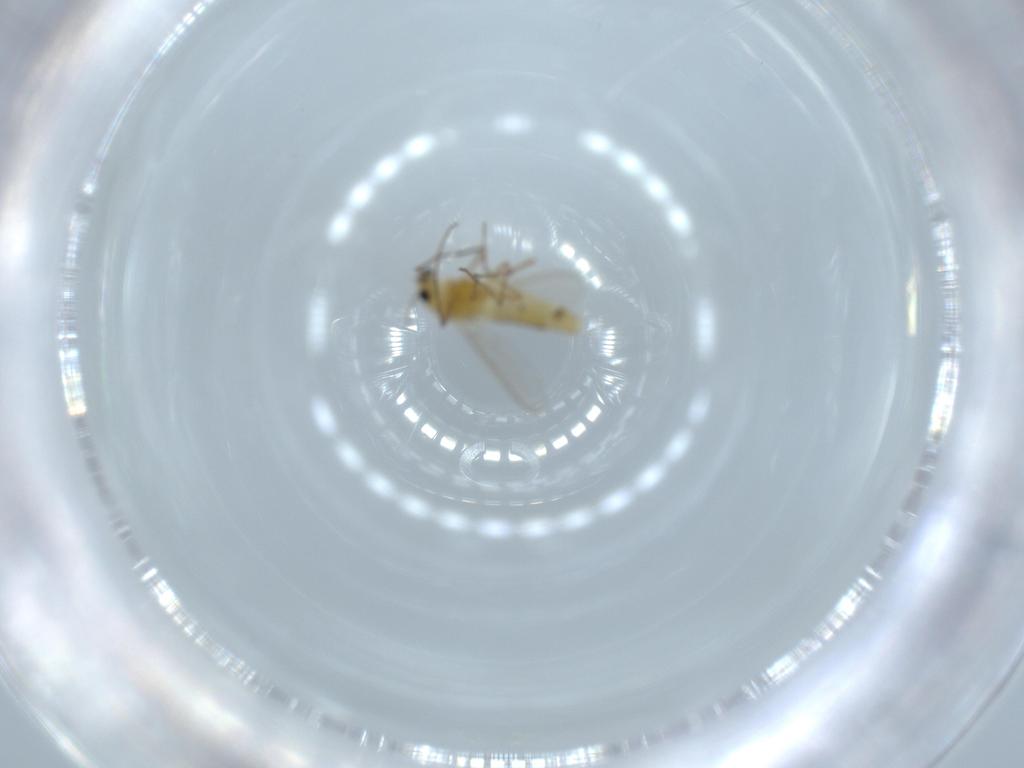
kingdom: Animalia
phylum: Arthropoda
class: Insecta
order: Diptera
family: Chironomidae
